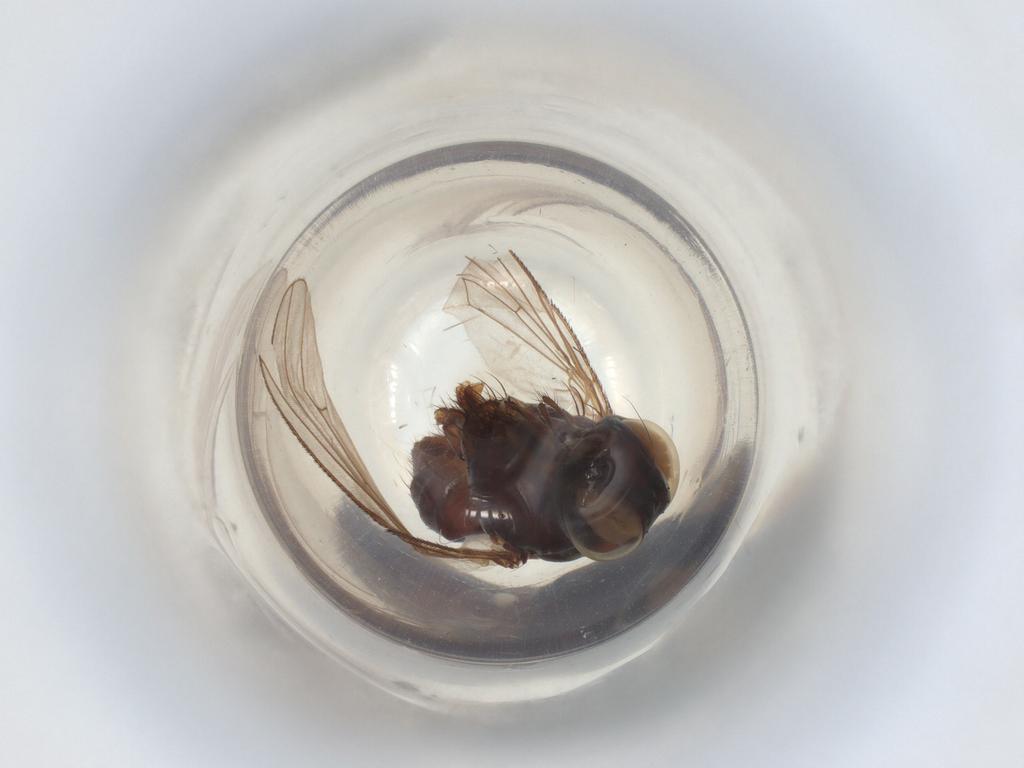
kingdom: Animalia
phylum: Arthropoda
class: Insecta
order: Diptera
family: Muscidae
